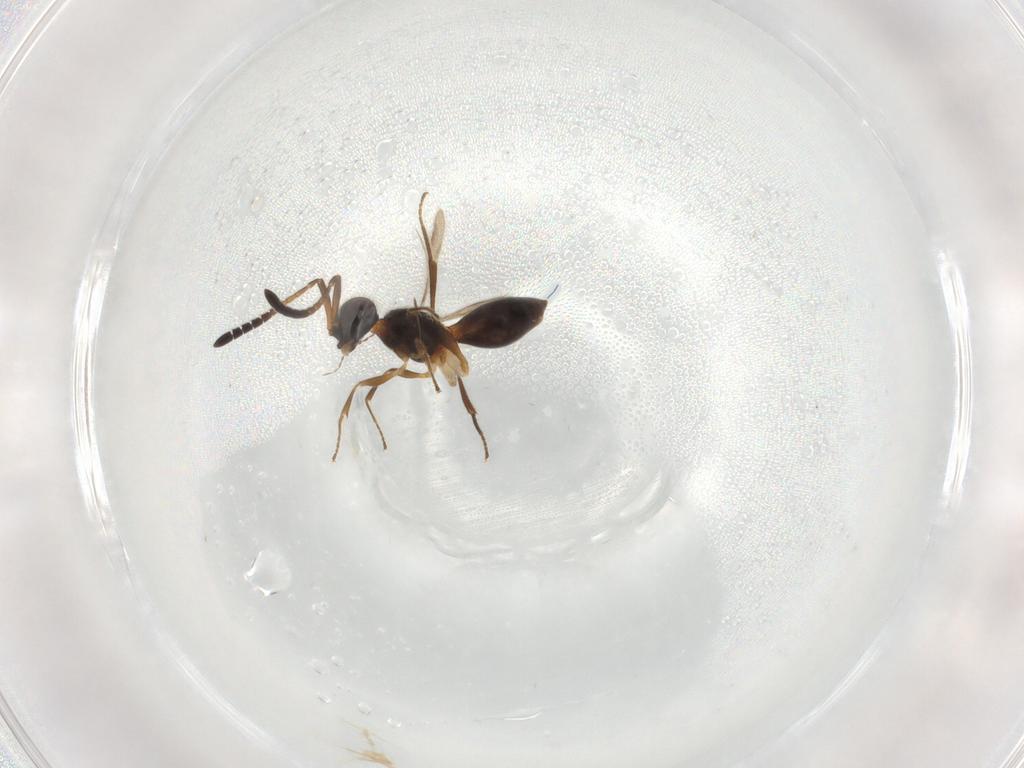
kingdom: Animalia
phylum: Arthropoda
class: Insecta
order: Hymenoptera
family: Megaspilidae
